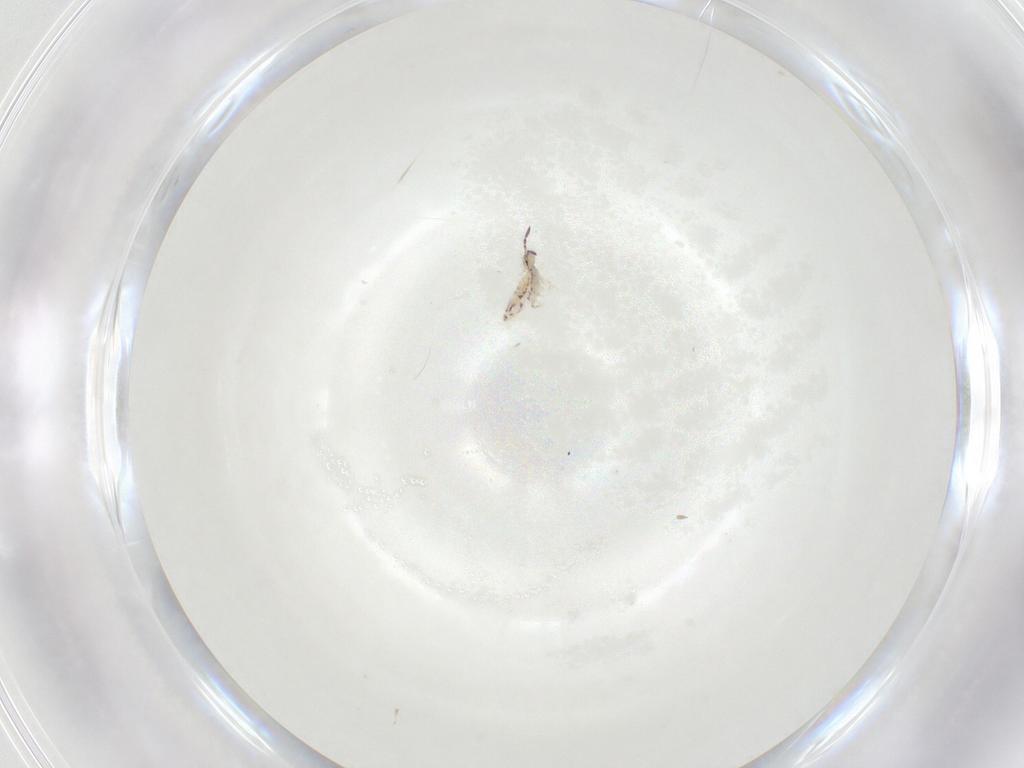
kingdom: Animalia
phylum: Arthropoda
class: Collembola
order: Entomobryomorpha
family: Entomobryidae
